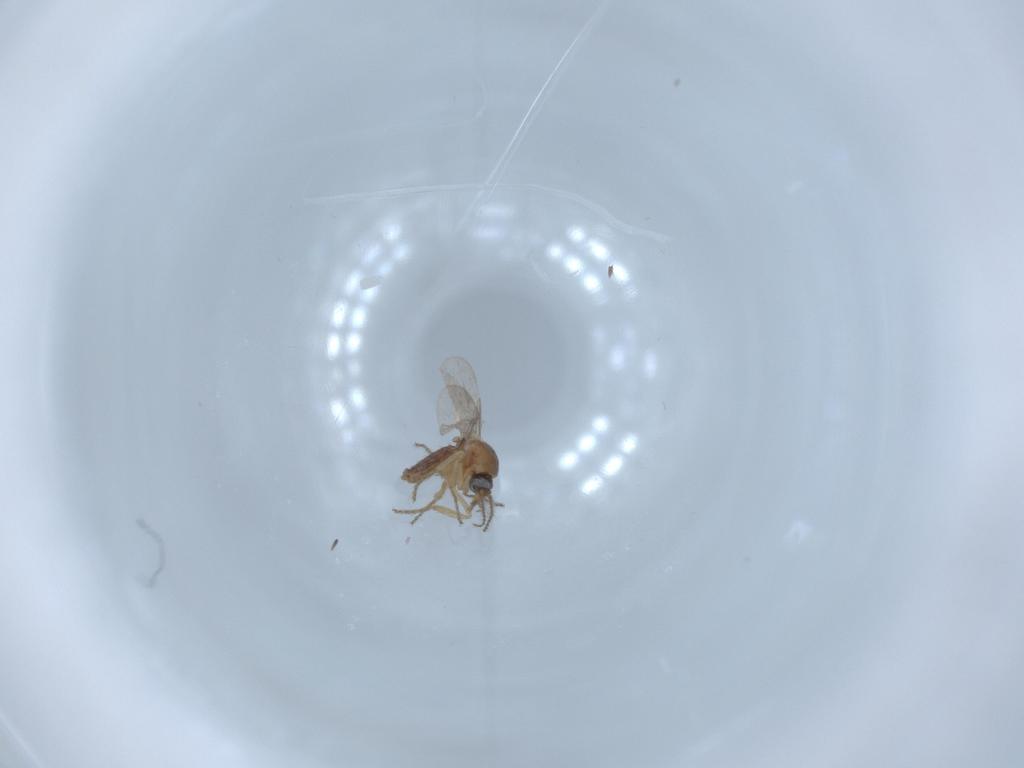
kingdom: Animalia
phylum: Arthropoda
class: Insecta
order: Diptera
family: Ceratopogonidae
